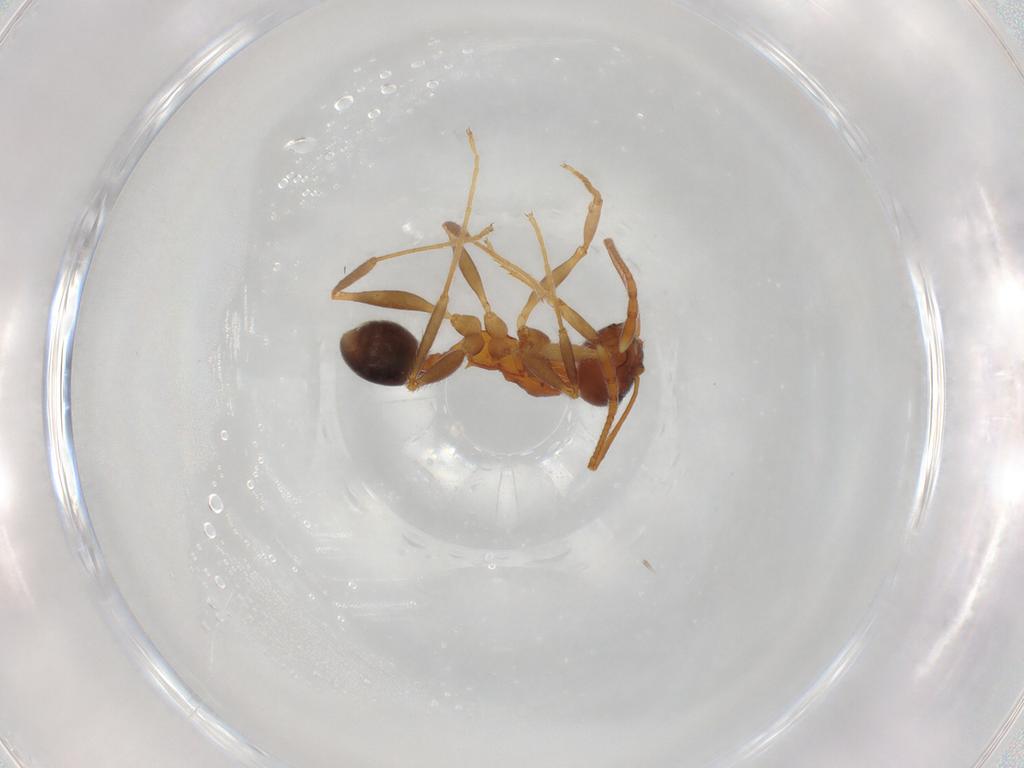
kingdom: Animalia
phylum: Arthropoda
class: Insecta
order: Hymenoptera
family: Formicidae
